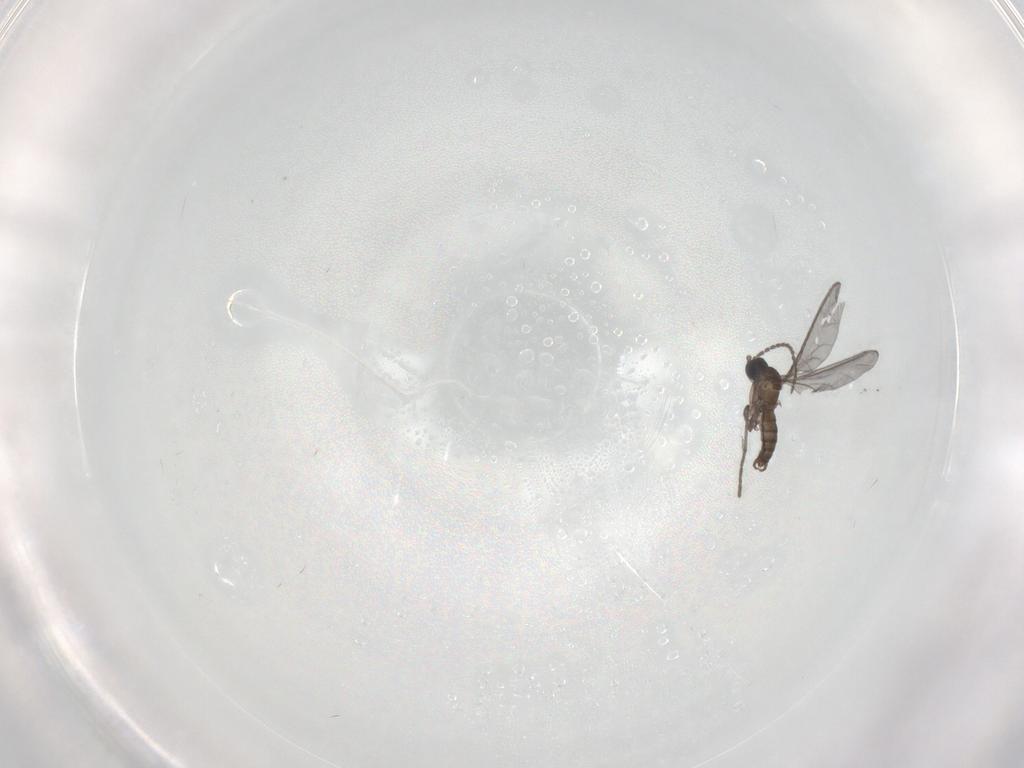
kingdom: Animalia
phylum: Arthropoda
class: Insecta
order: Diptera
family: Sciaridae
